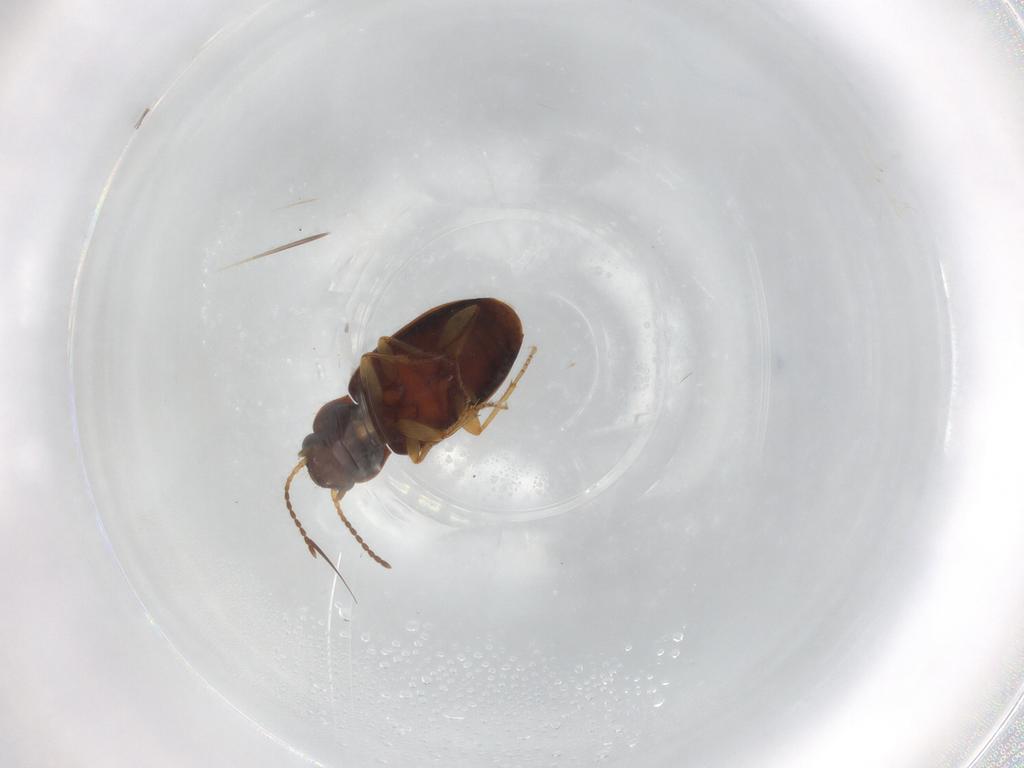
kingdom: Animalia
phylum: Arthropoda
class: Insecta
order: Coleoptera
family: Carabidae
